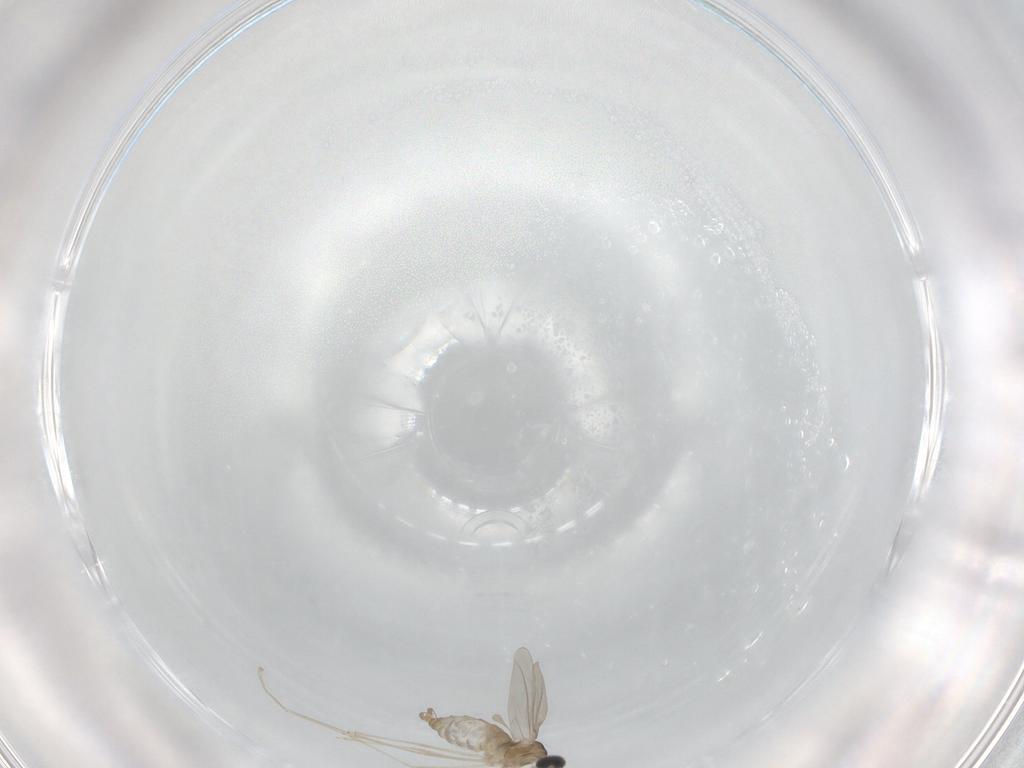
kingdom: Animalia
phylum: Arthropoda
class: Insecta
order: Diptera
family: Cecidomyiidae
